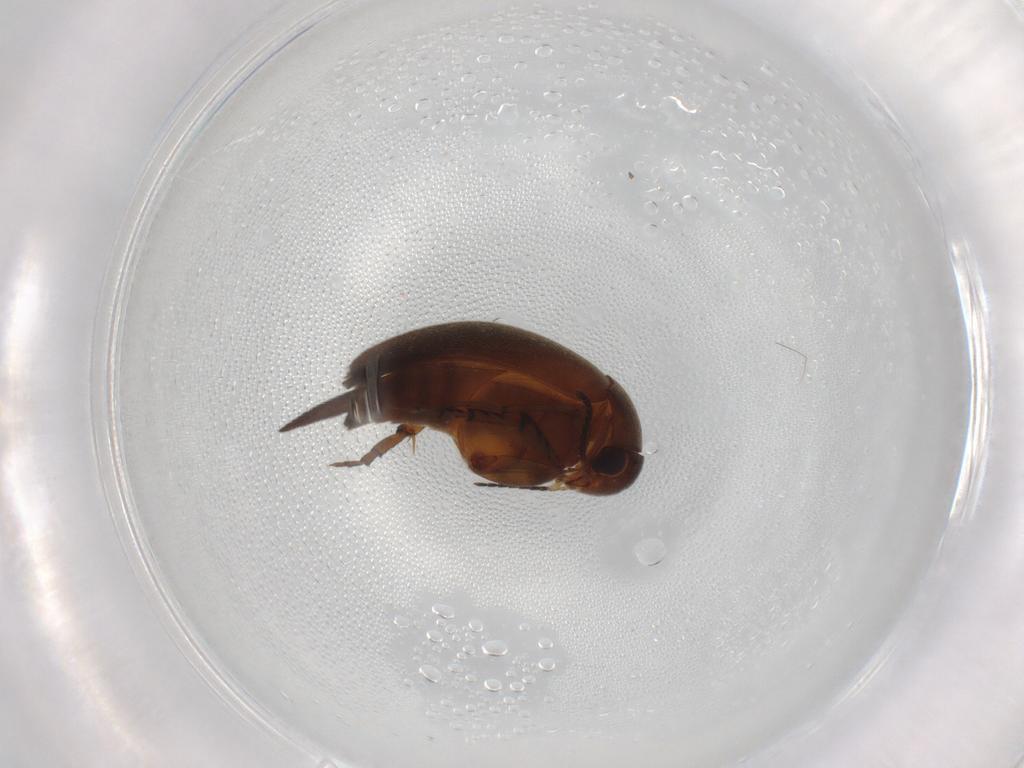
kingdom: Animalia
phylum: Arthropoda
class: Insecta
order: Coleoptera
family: Mordellidae
